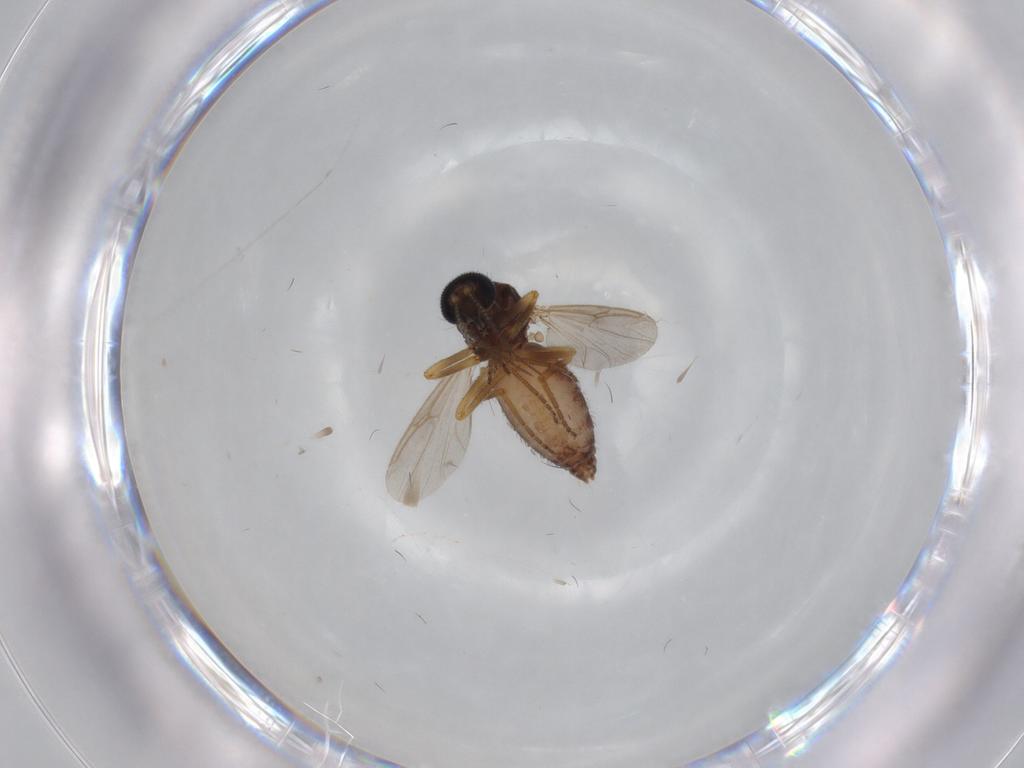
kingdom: Animalia
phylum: Arthropoda
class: Insecta
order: Diptera
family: Ceratopogonidae
